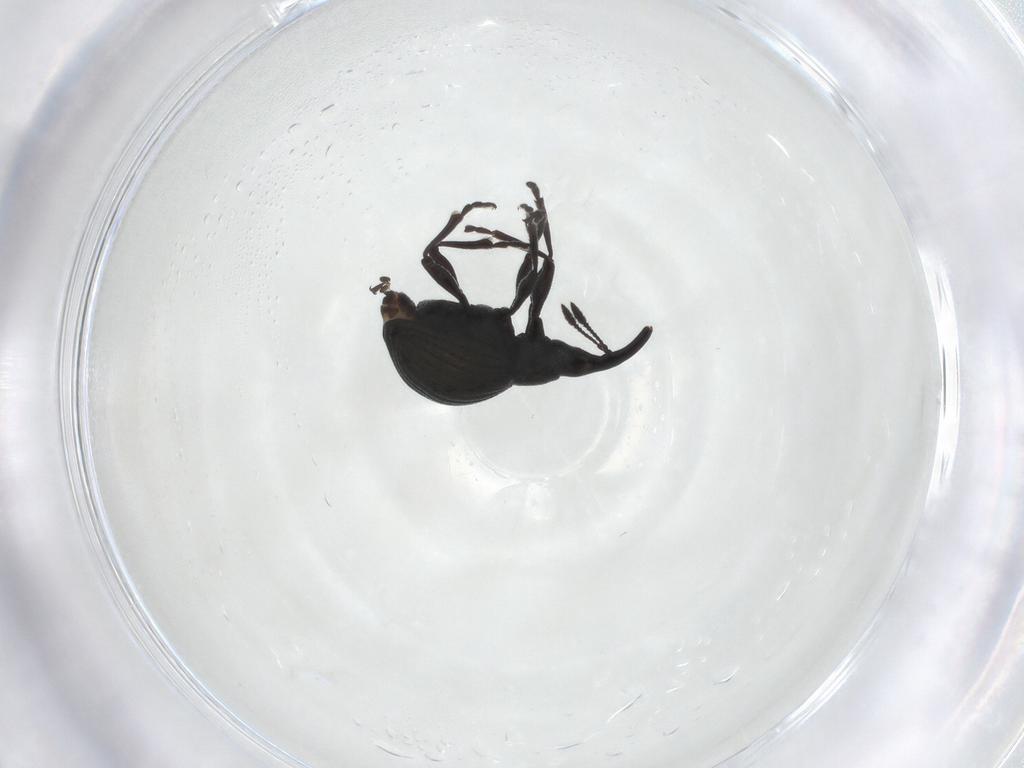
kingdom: Animalia
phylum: Arthropoda
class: Insecta
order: Coleoptera
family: Brentidae
